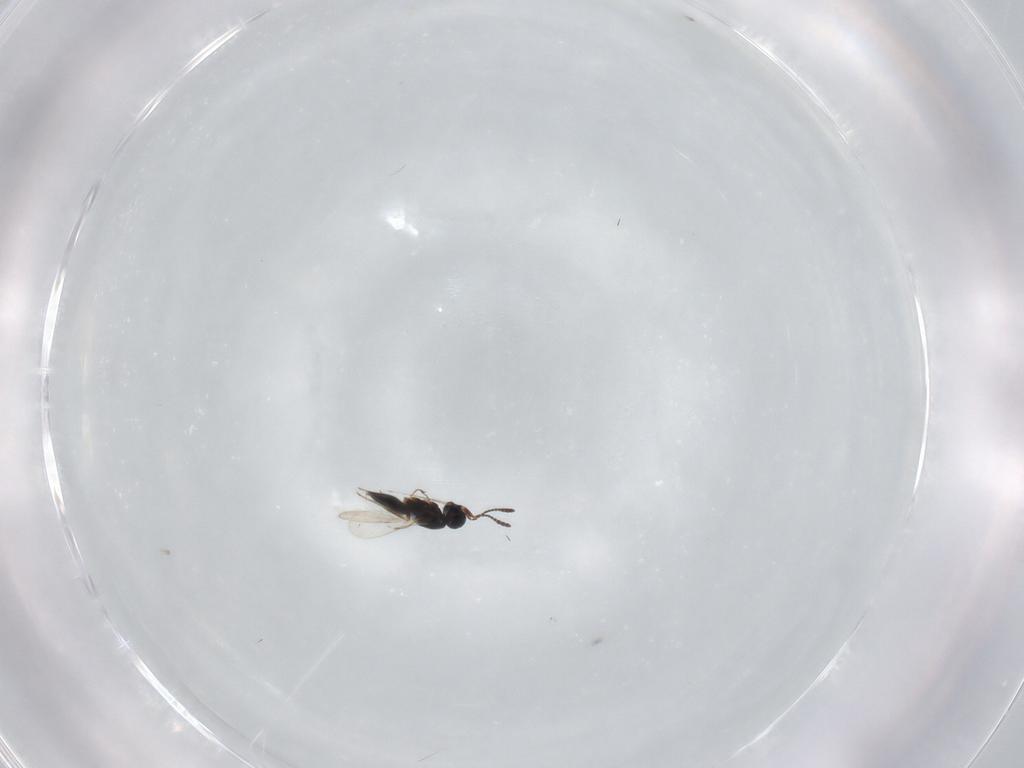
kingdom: Animalia
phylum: Arthropoda
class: Insecta
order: Hymenoptera
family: Scelionidae
